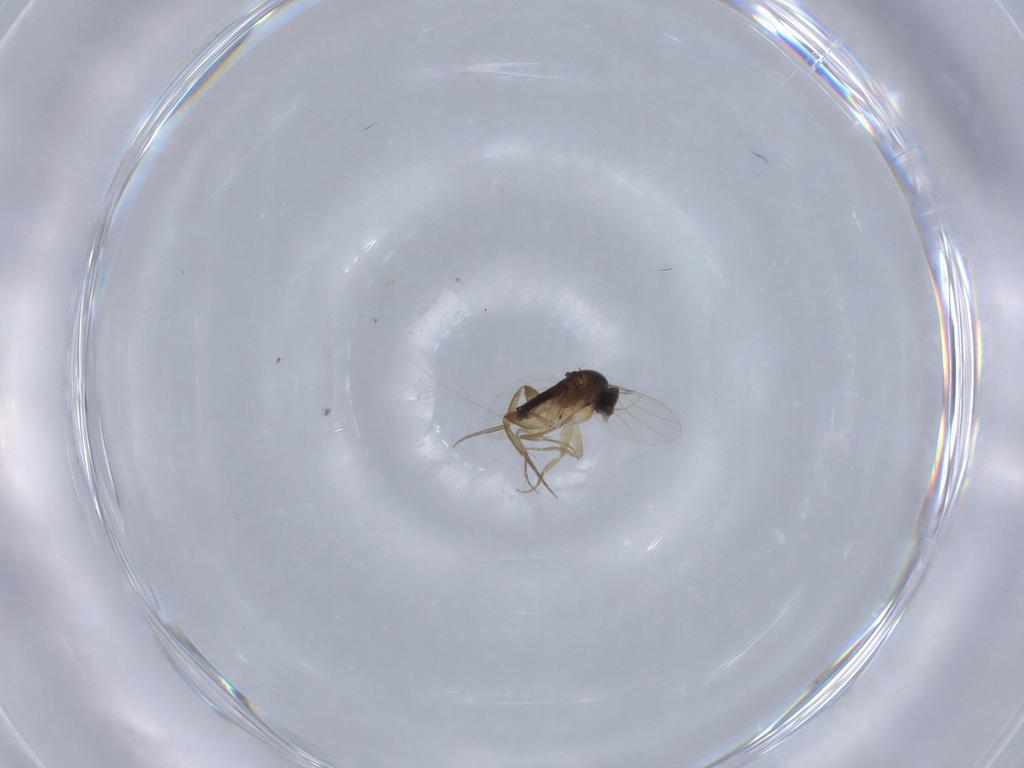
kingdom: Animalia
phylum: Arthropoda
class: Insecta
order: Diptera
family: Phoridae
